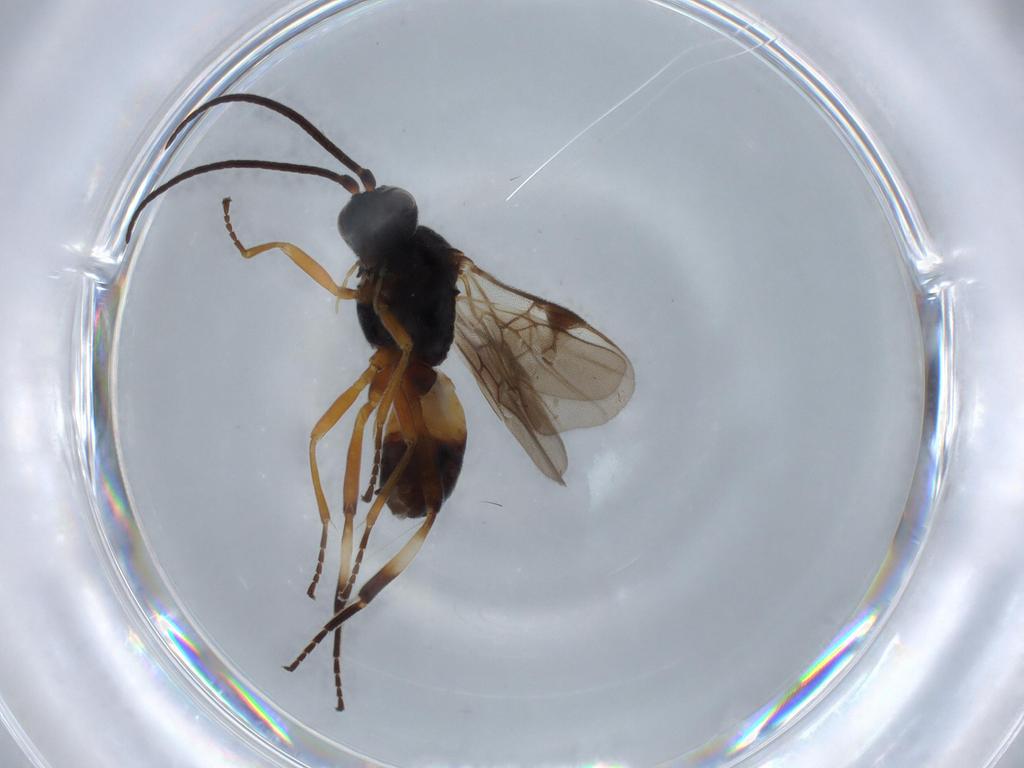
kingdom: Animalia
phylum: Arthropoda
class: Insecta
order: Hymenoptera
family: Braconidae
